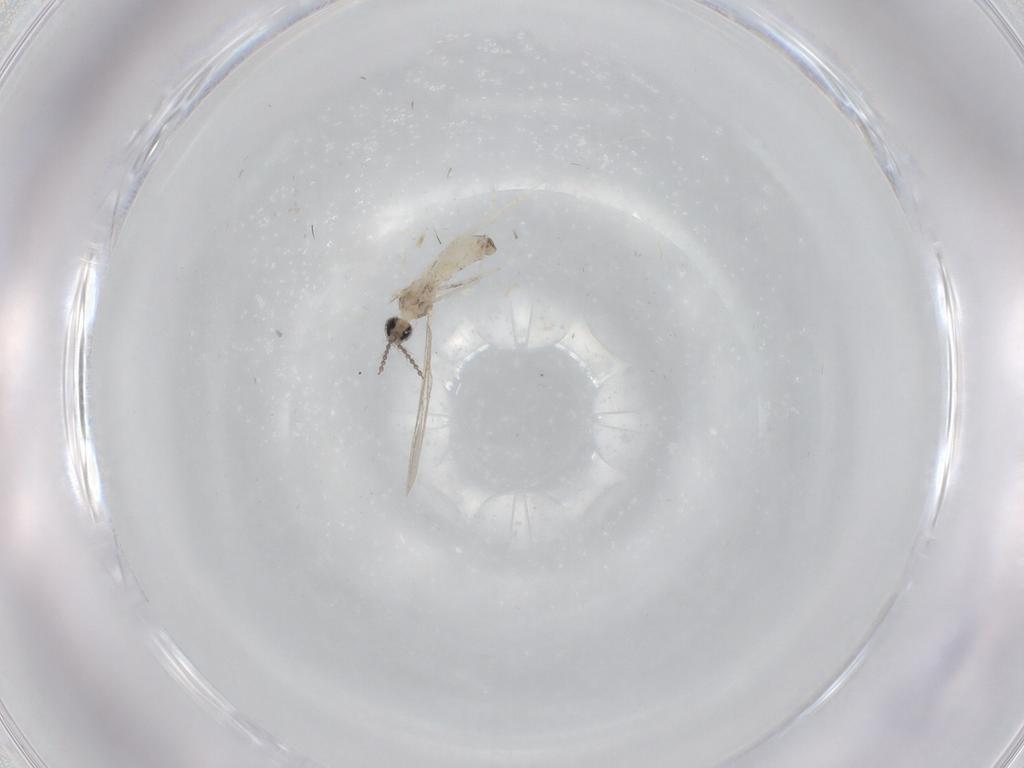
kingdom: Animalia
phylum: Arthropoda
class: Insecta
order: Diptera
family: Cecidomyiidae
